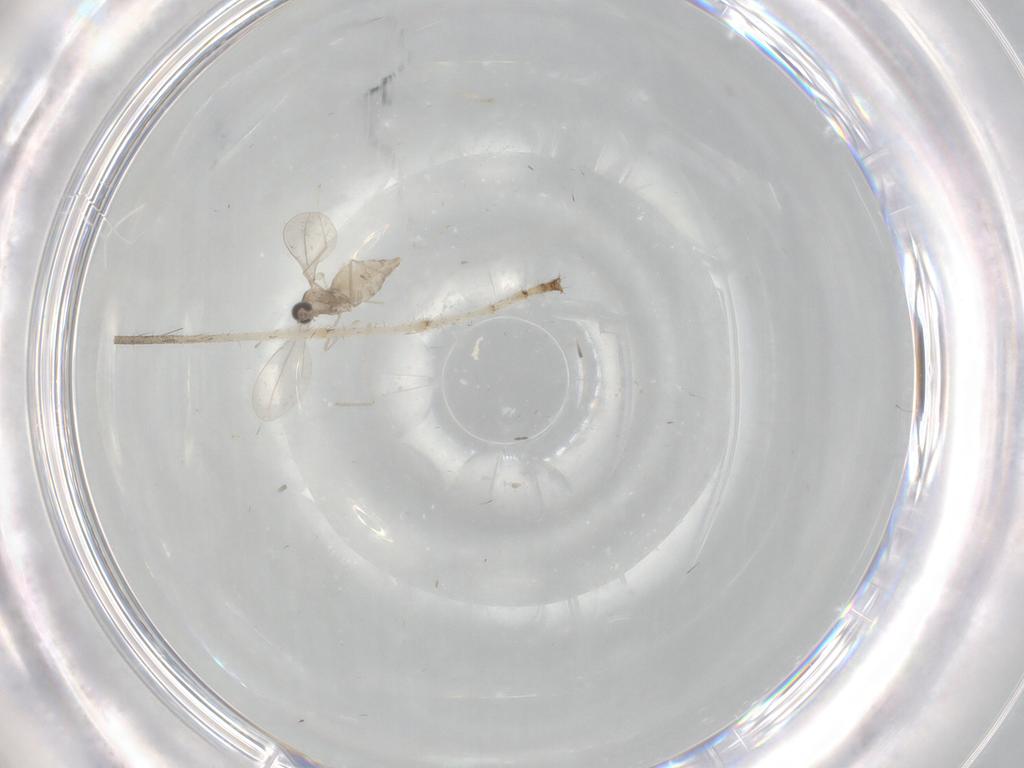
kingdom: Animalia
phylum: Arthropoda
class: Insecta
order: Diptera
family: Cecidomyiidae
